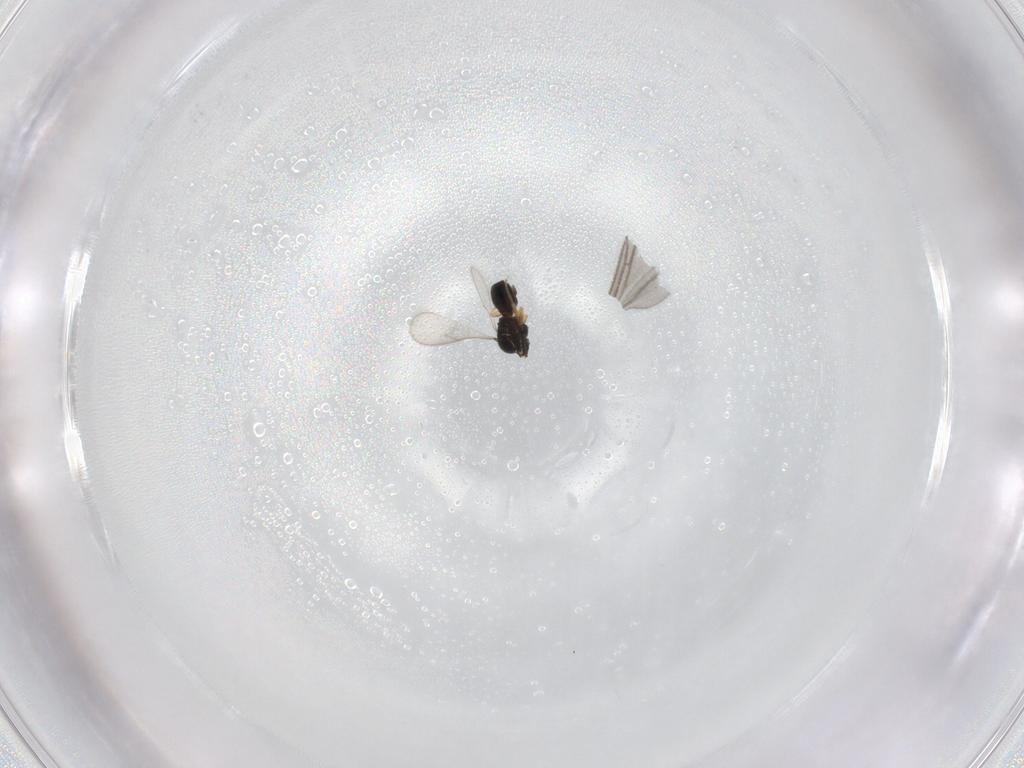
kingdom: Animalia
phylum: Arthropoda
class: Insecta
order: Hymenoptera
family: Scelionidae
